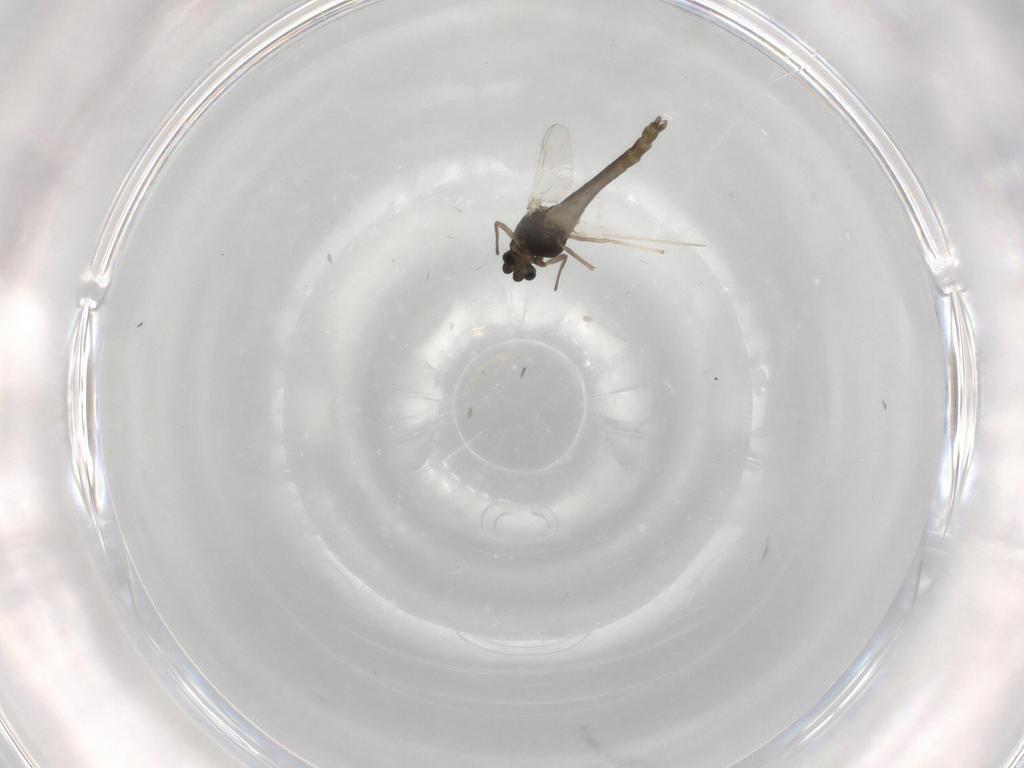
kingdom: Animalia
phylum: Arthropoda
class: Insecta
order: Diptera
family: Chironomidae
